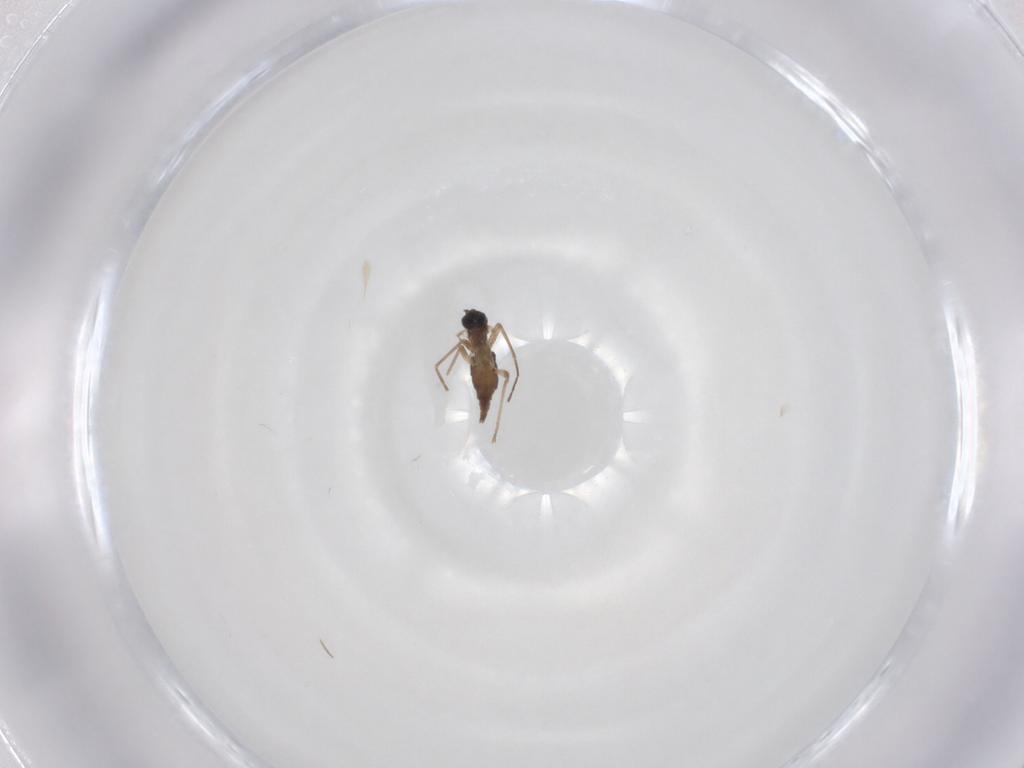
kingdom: Animalia
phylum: Arthropoda
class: Insecta
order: Diptera
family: Sciaridae
